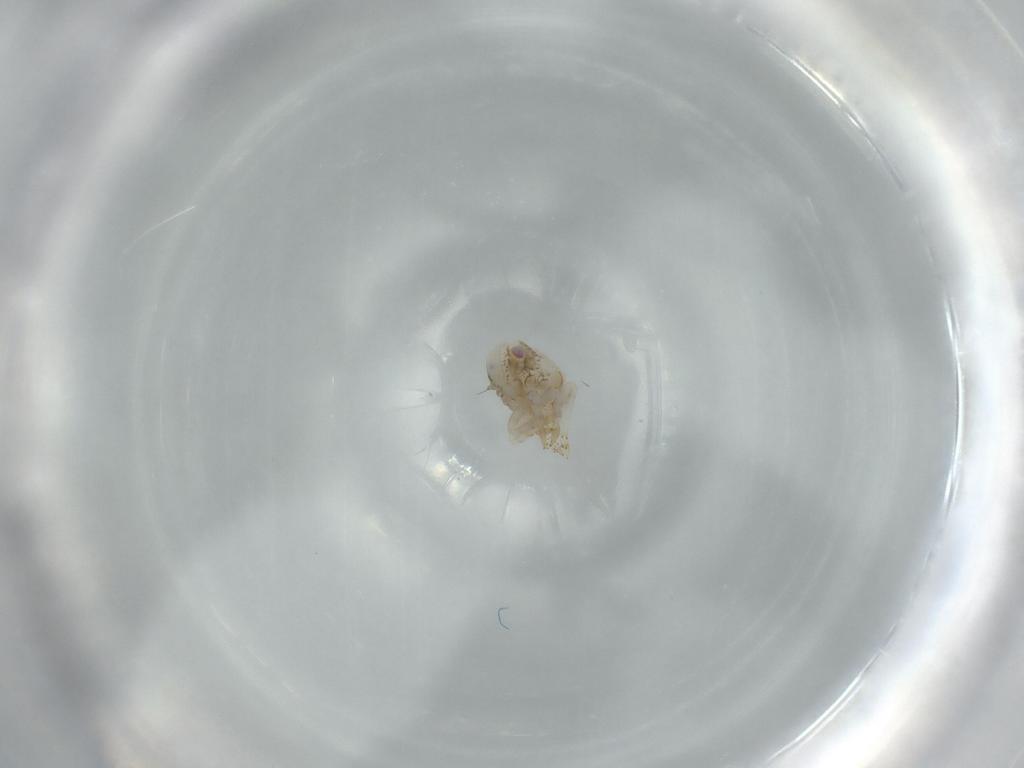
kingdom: Animalia
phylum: Arthropoda
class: Insecta
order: Hemiptera
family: Acanaloniidae
